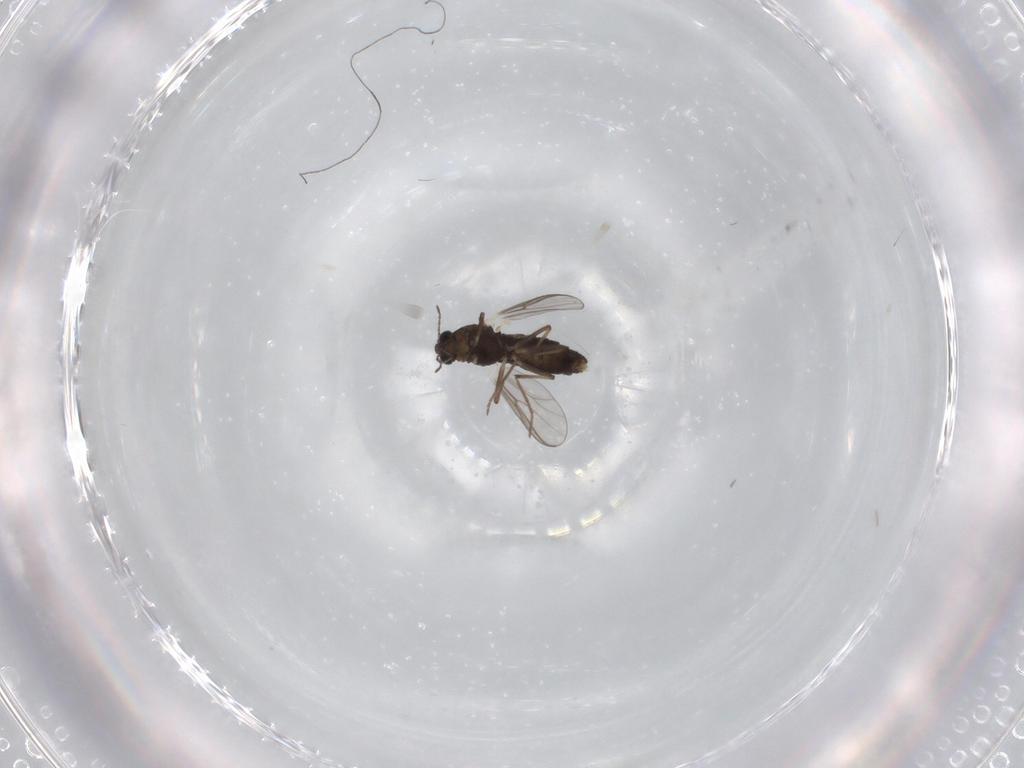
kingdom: Animalia
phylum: Arthropoda
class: Insecta
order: Diptera
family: Chironomidae
